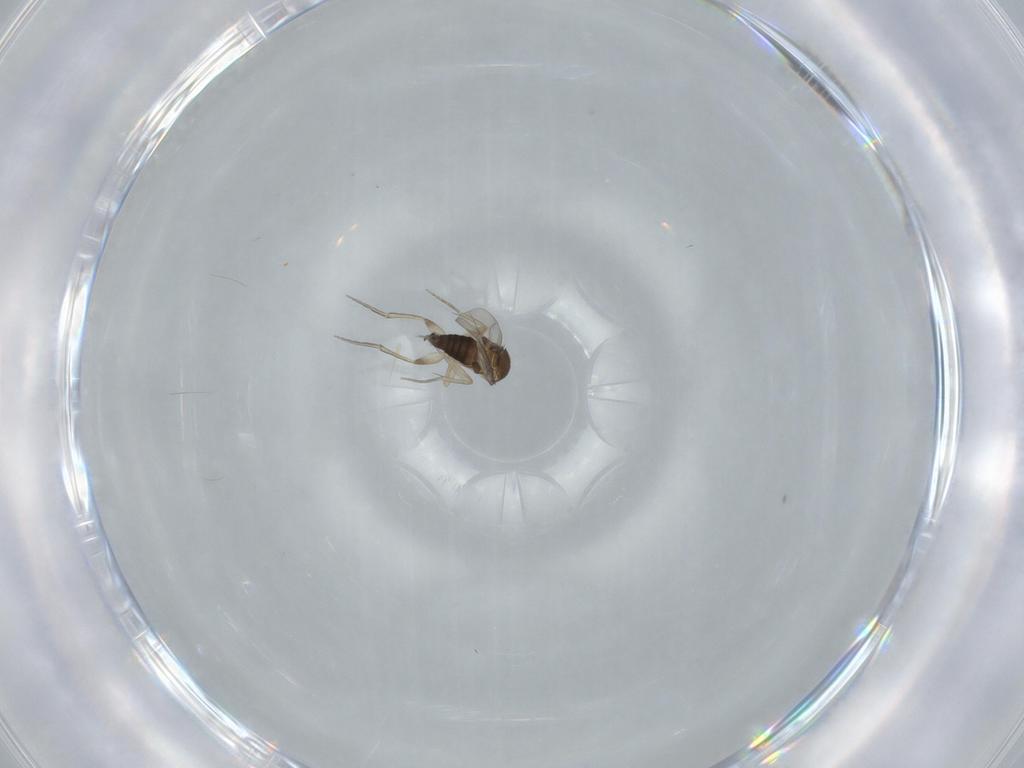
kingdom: Animalia
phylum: Arthropoda
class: Insecta
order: Diptera
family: Phoridae
